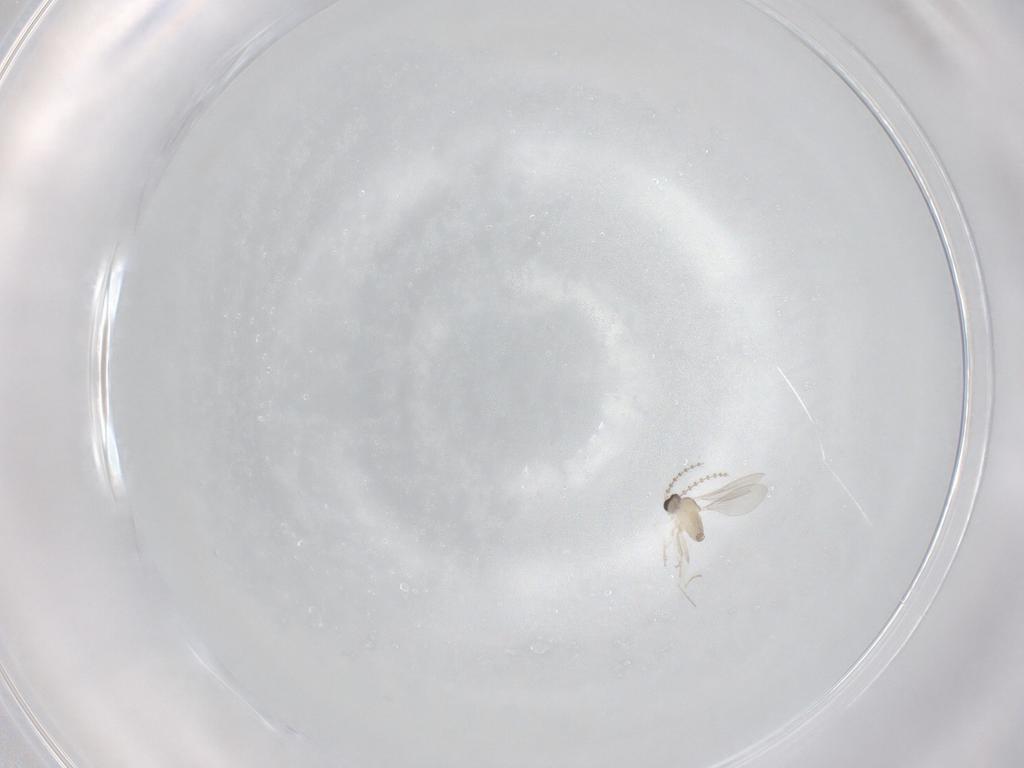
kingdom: Animalia
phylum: Arthropoda
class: Insecta
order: Diptera
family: Cecidomyiidae
